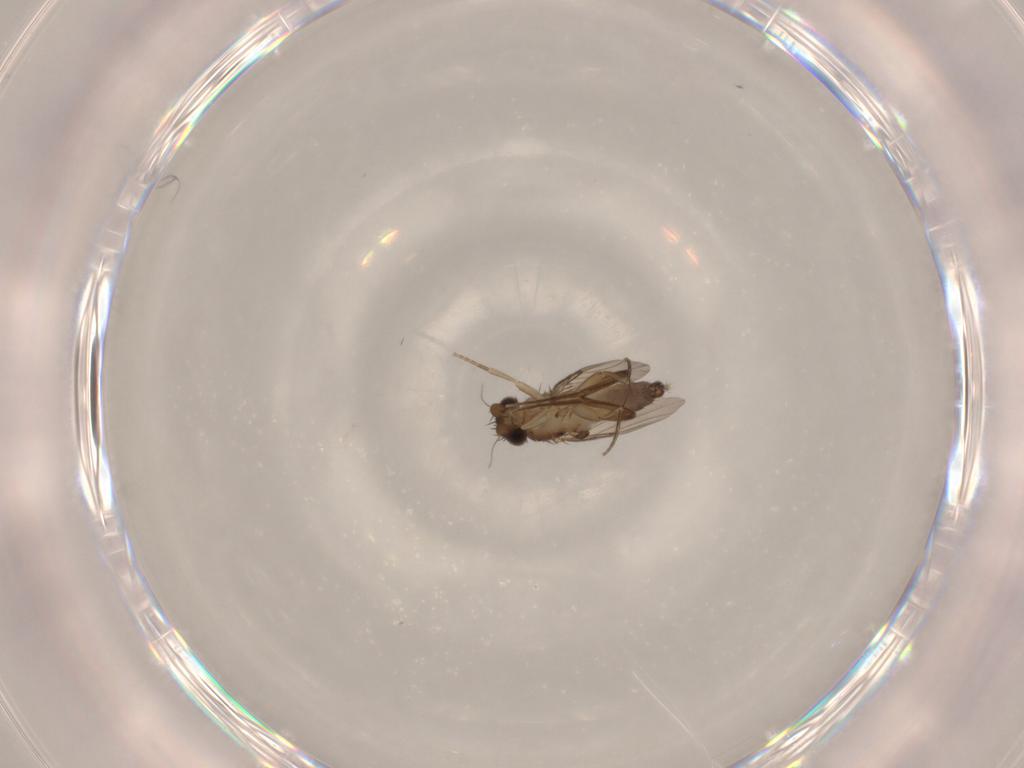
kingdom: Animalia
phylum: Arthropoda
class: Insecta
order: Diptera
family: Phoridae
